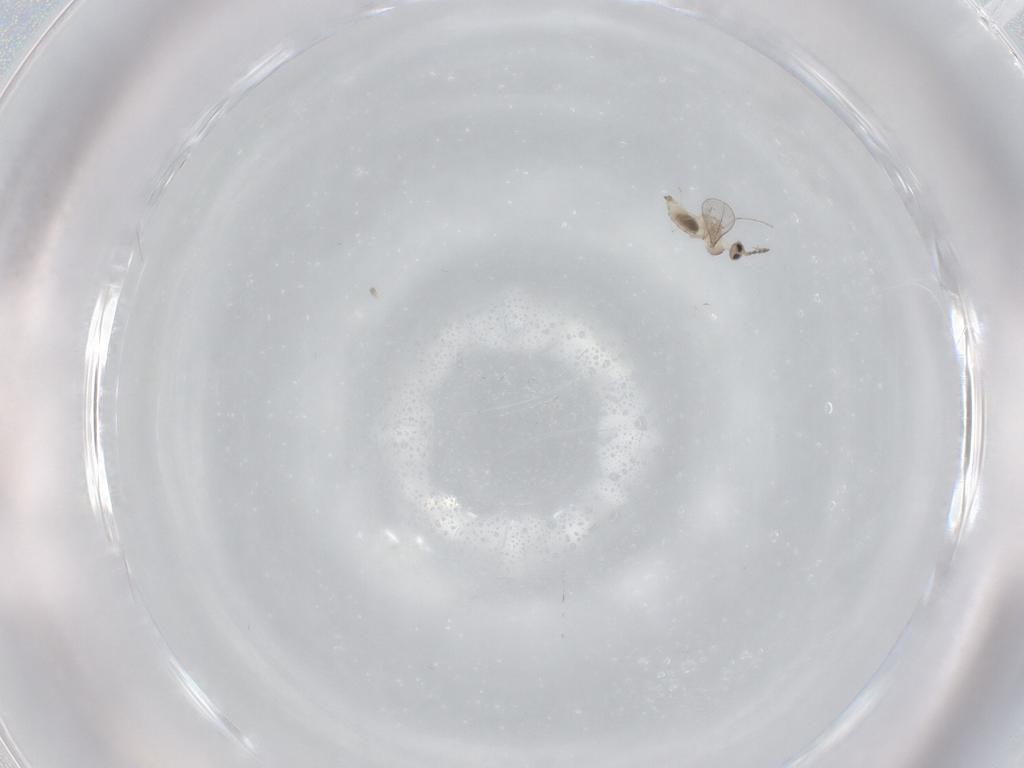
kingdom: Animalia
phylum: Arthropoda
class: Insecta
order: Diptera
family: Cecidomyiidae
